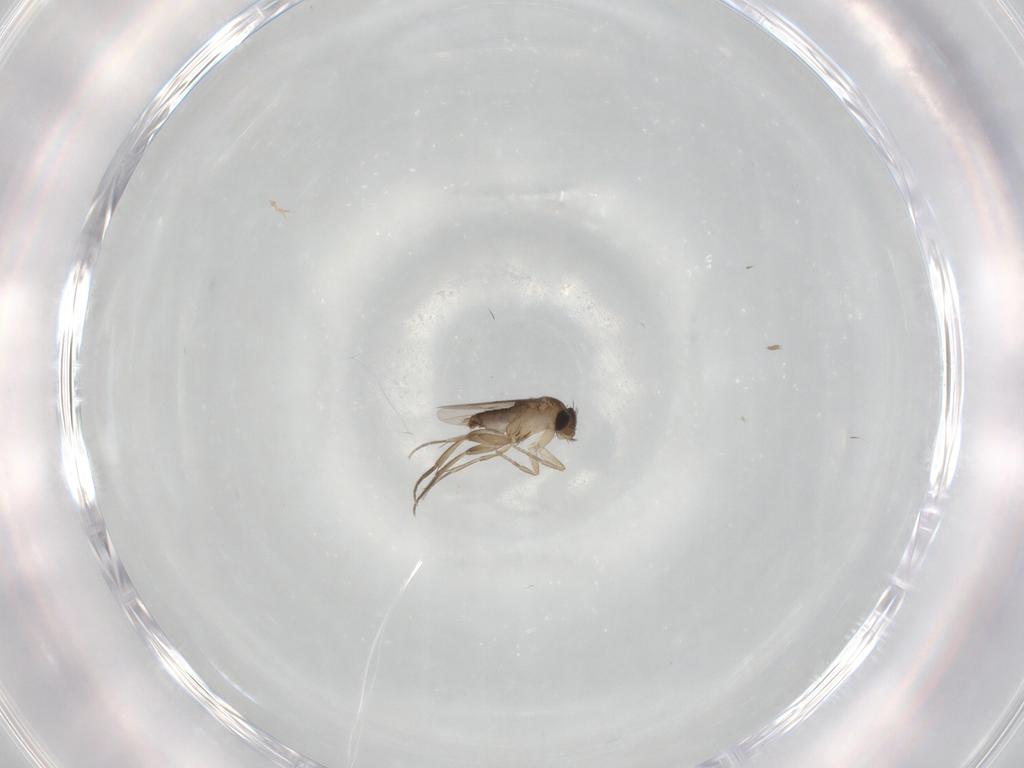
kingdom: Animalia
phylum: Arthropoda
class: Insecta
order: Diptera
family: Phoridae
